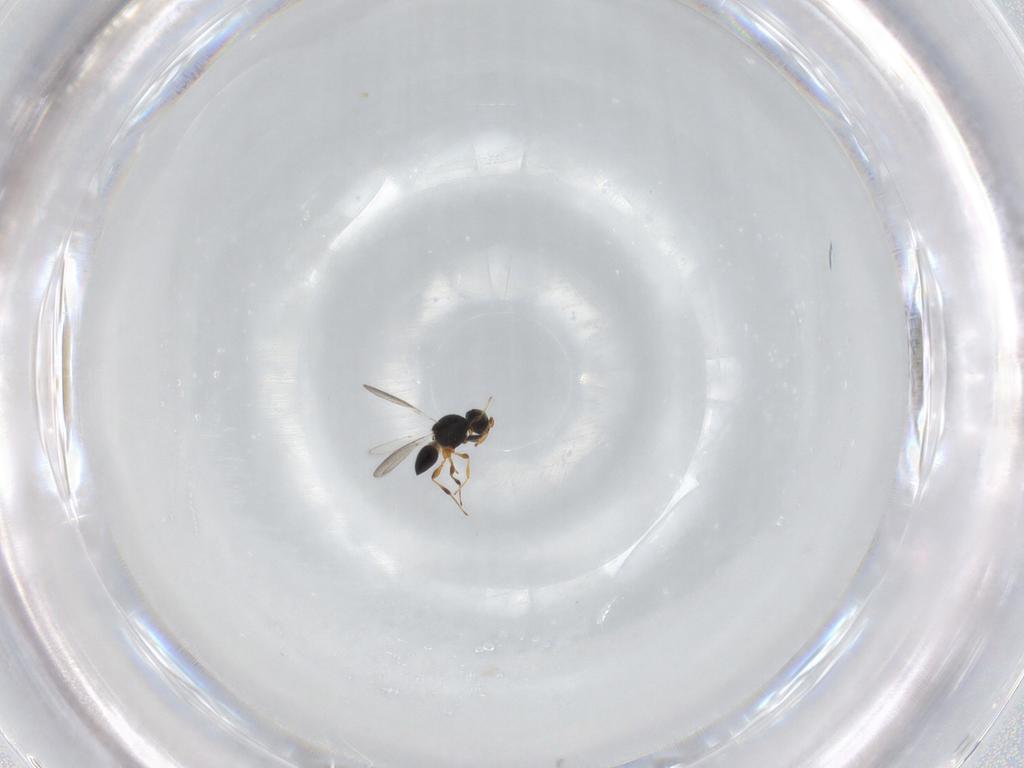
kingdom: Animalia
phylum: Arthropoda
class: Insecta
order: Hymenoptera
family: Platygastridae
